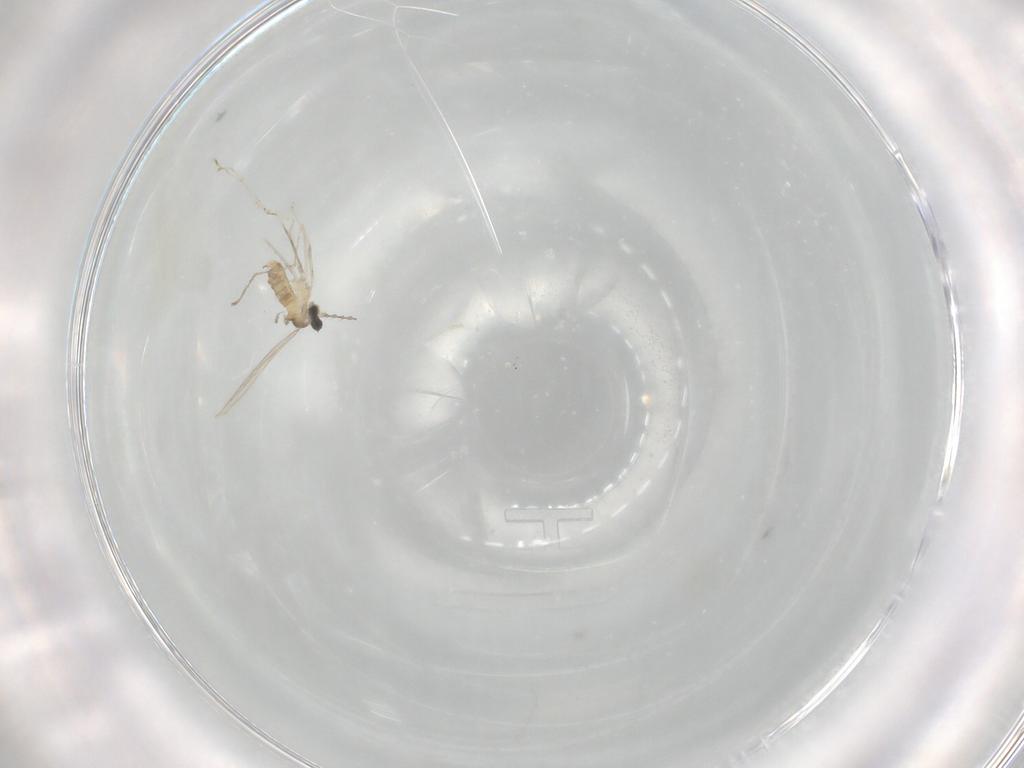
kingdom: Animalia
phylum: Arthropoda
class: Insecta
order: Diptera
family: Cecidomyiidae
